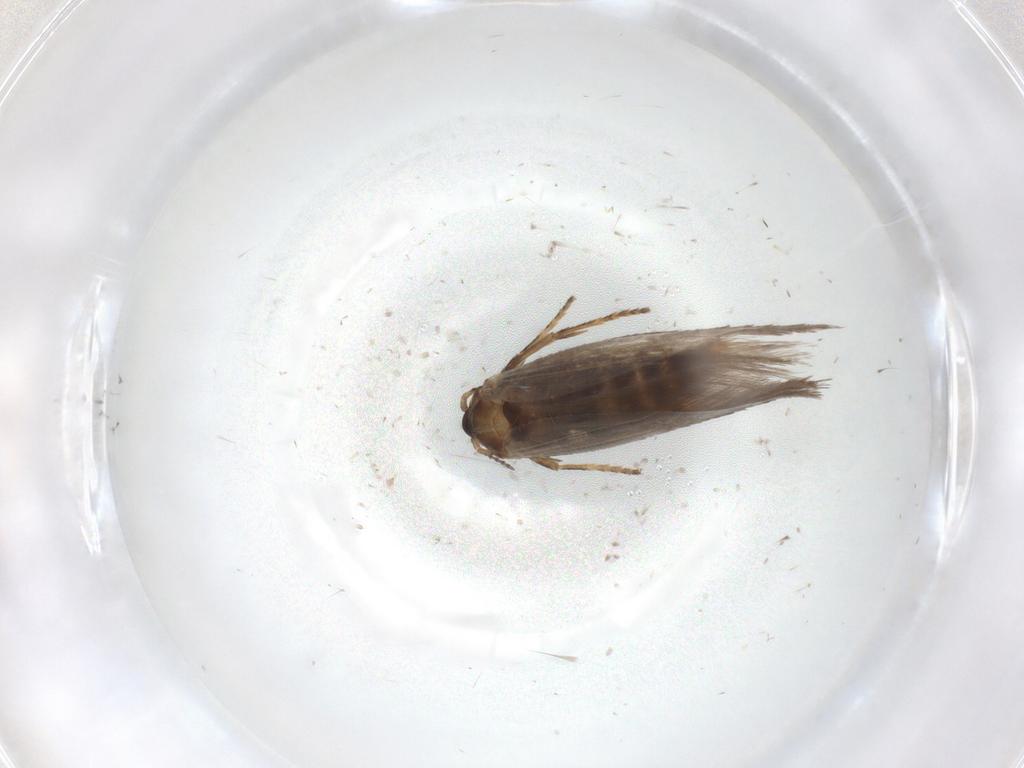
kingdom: Animalia
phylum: Arthropoda
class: Insecta
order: Lepidoptera
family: Nepticulidae
